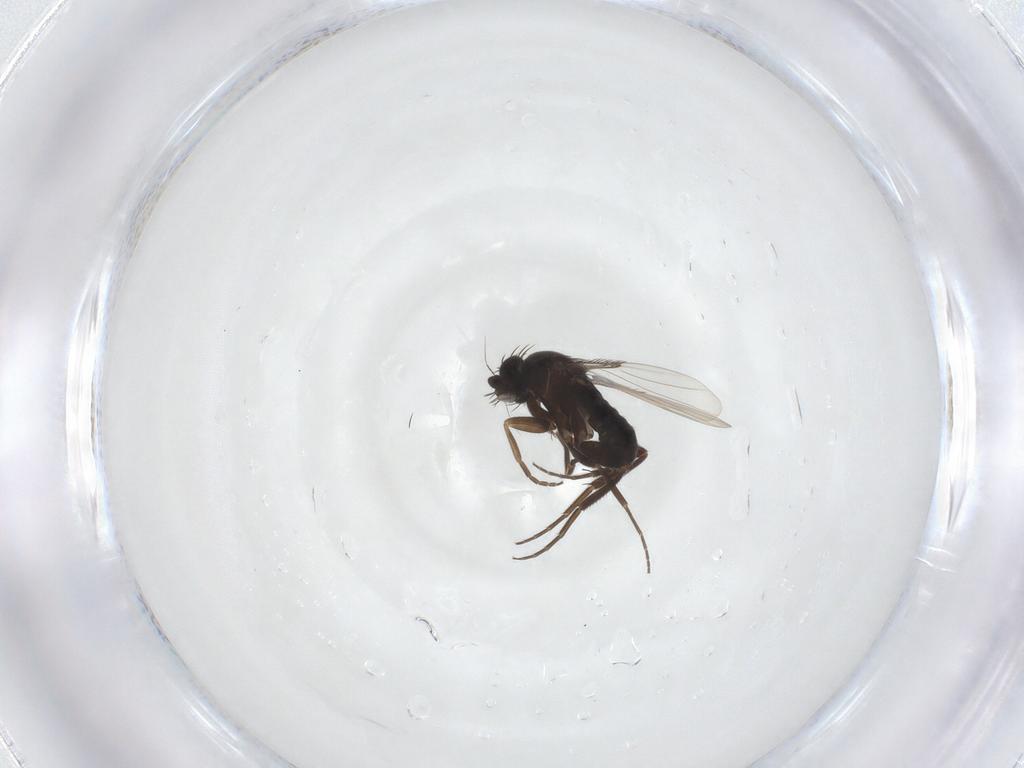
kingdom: Animalia
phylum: Arthropoda
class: Insecta
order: Diptera
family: Phoridae
